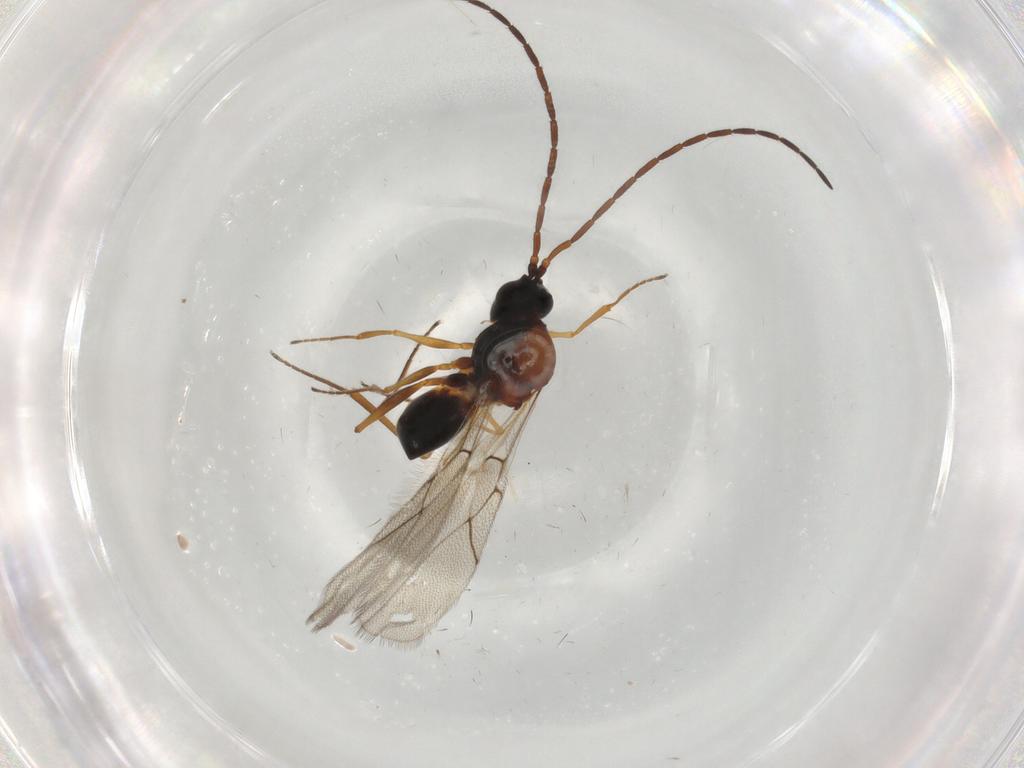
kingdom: Animalia
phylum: Arthropoda
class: Insecta
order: Hymenoptera
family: Figitidae
